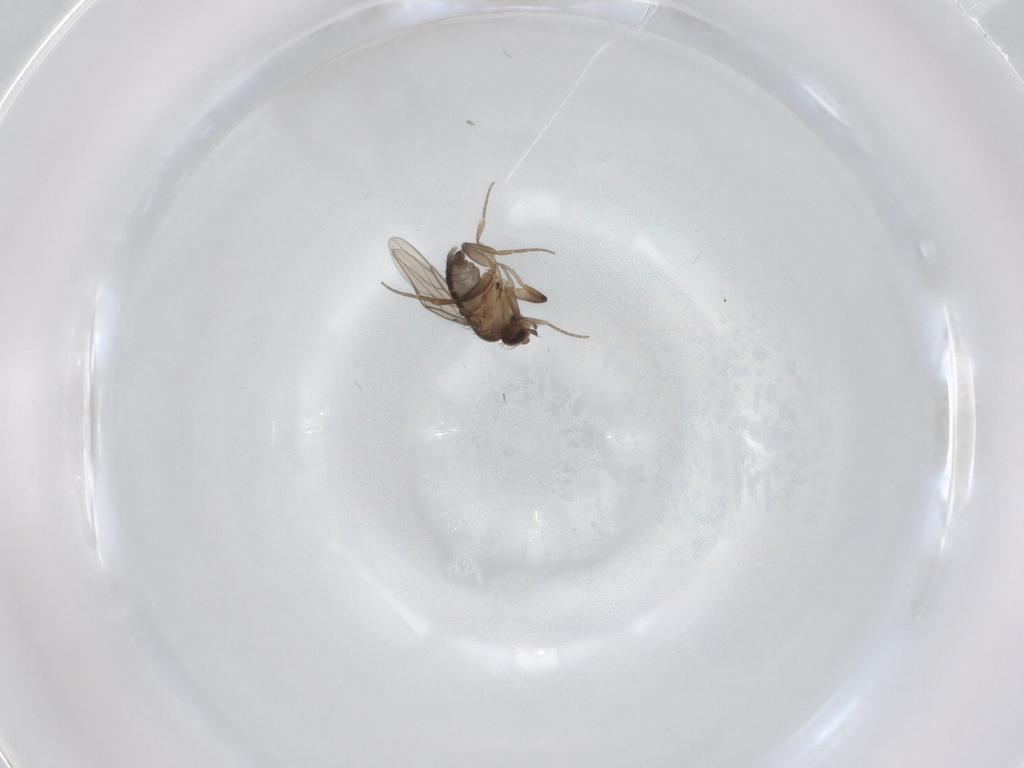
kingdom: Animalia
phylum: Arthropoda
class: Insecta
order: Diptera
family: Phoridae
